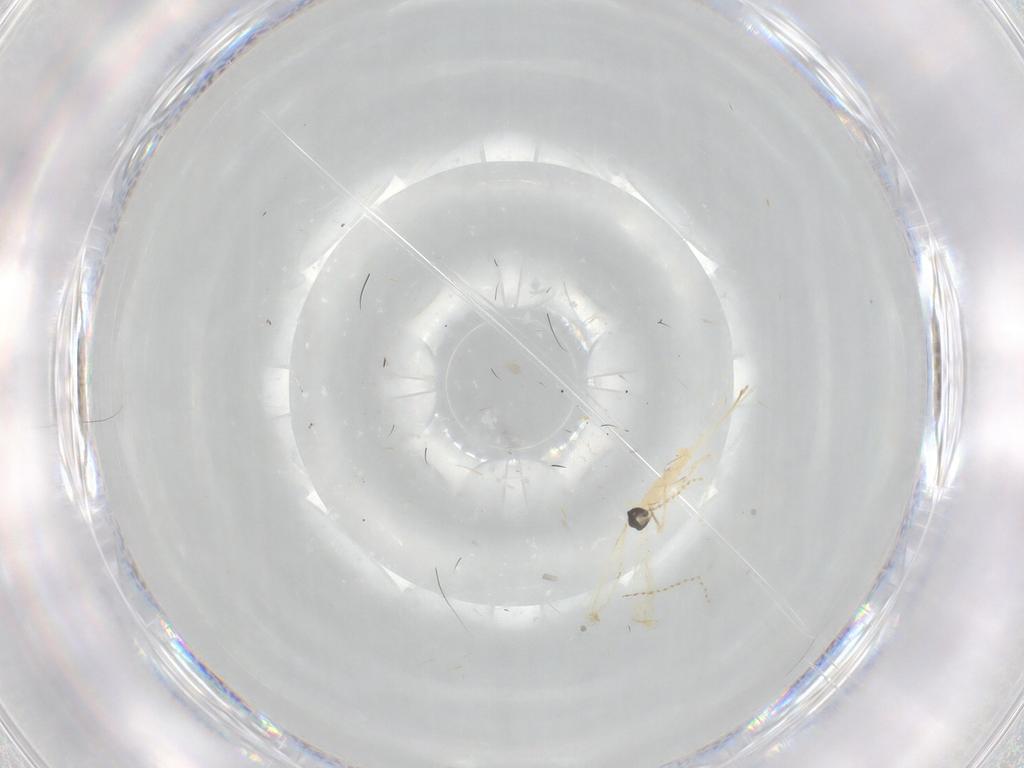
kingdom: Animalia
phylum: Arthropoda
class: Insecta
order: Diptera
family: Cecidomyiidae
